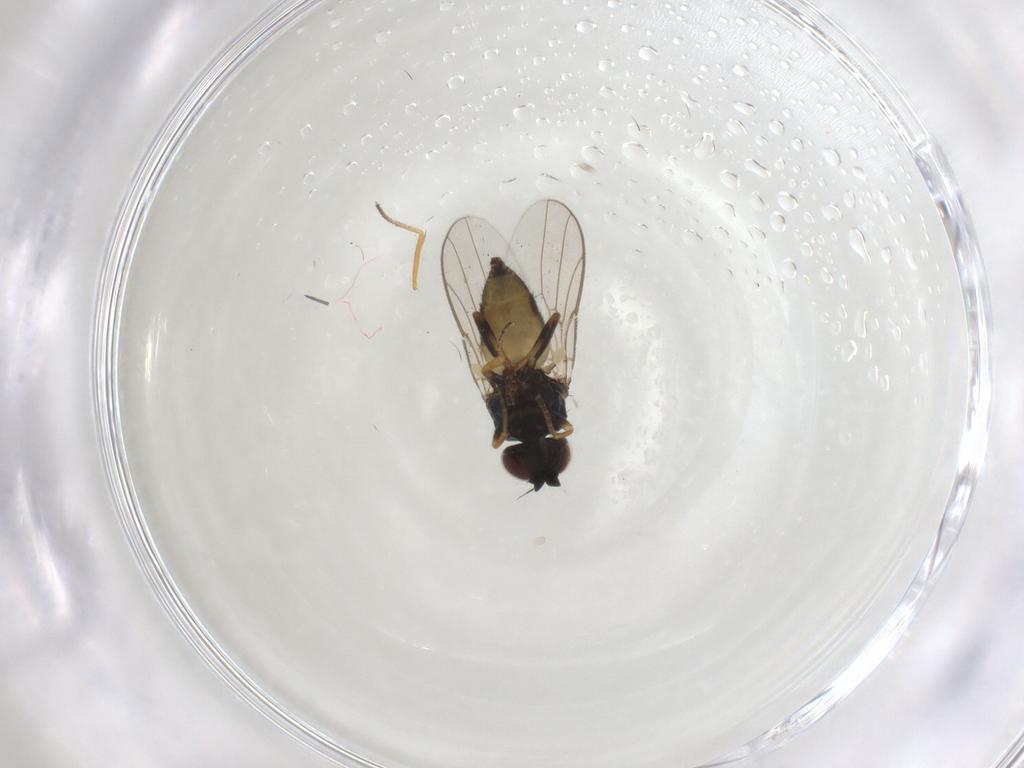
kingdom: Animalia
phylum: Arthropoda
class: Insecta
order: Diptera
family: Chloropidae
